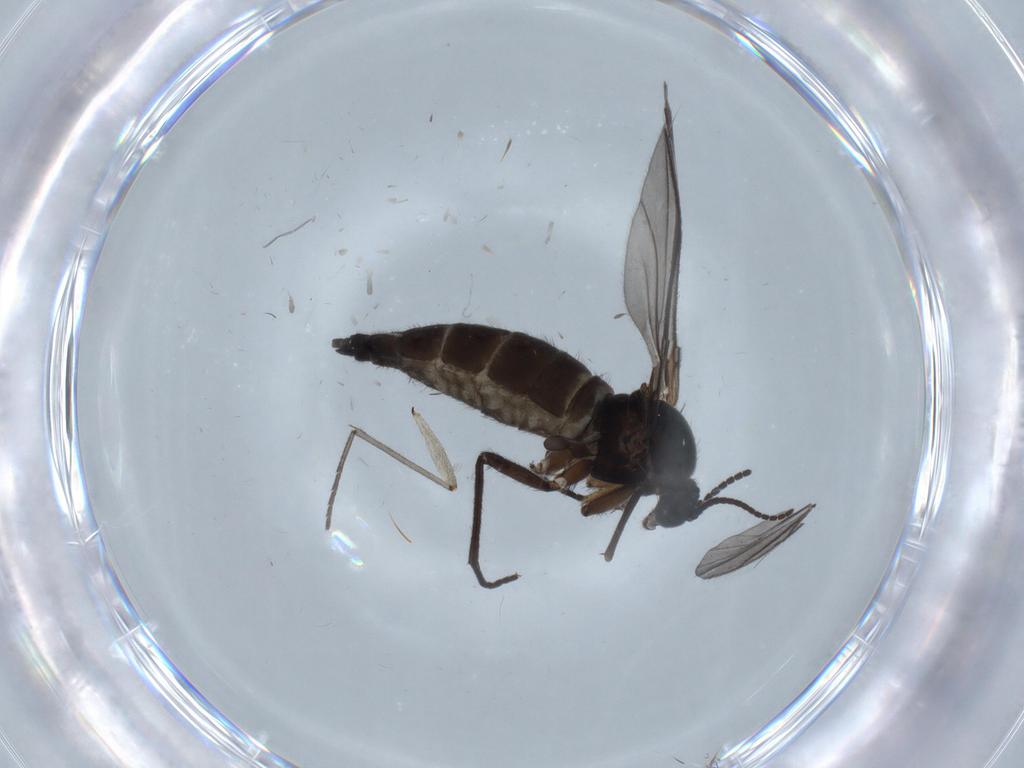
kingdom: Animalia
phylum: Arthropoda
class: Insecta
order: Diptera
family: Sciaridae
